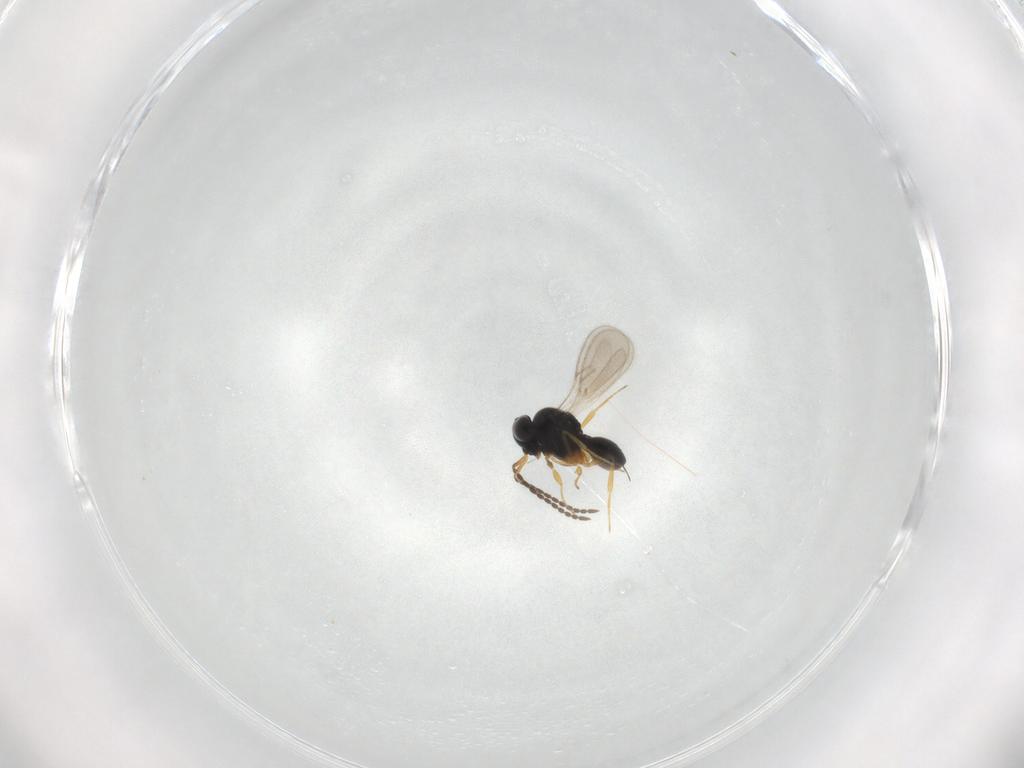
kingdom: Animalia
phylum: Arthropoda
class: Insecta
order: Hymenoptera
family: Scelionidae
